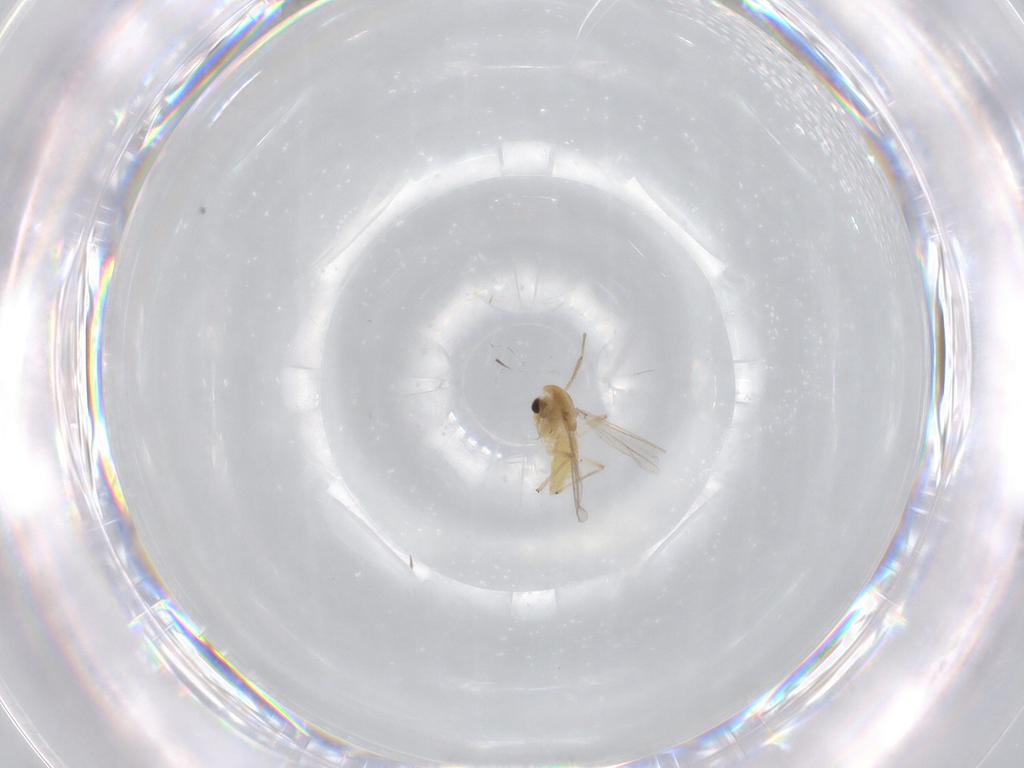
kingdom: Animalia
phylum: Arthropoda
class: Insecta
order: Diptera
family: Chironomidae
